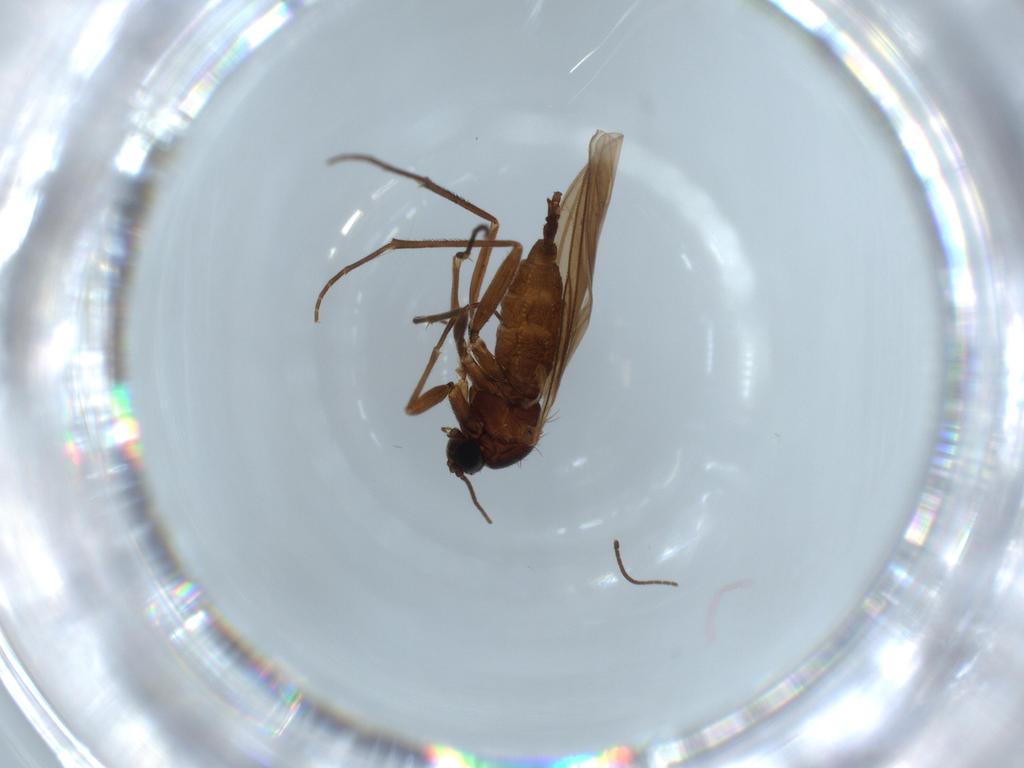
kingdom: Animalia
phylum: Arthropoda
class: Insecta
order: Diptera
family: Sciaridae
